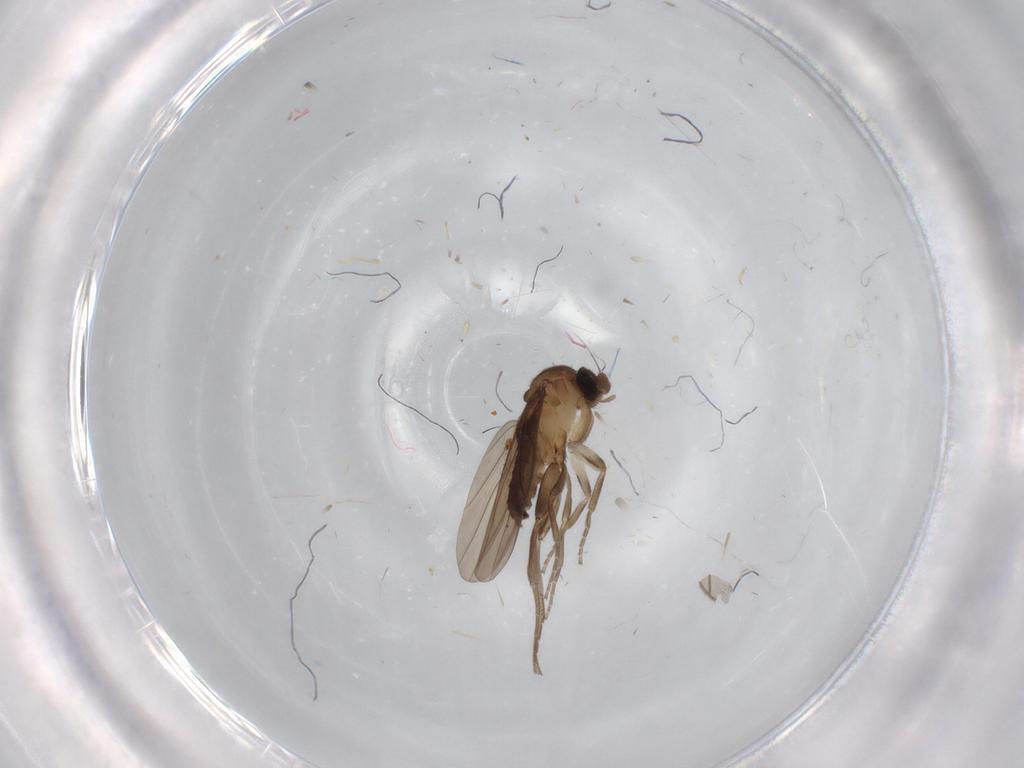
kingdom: Animalia
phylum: Arthropoda
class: Insecta
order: Diptera
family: Limoniidae
